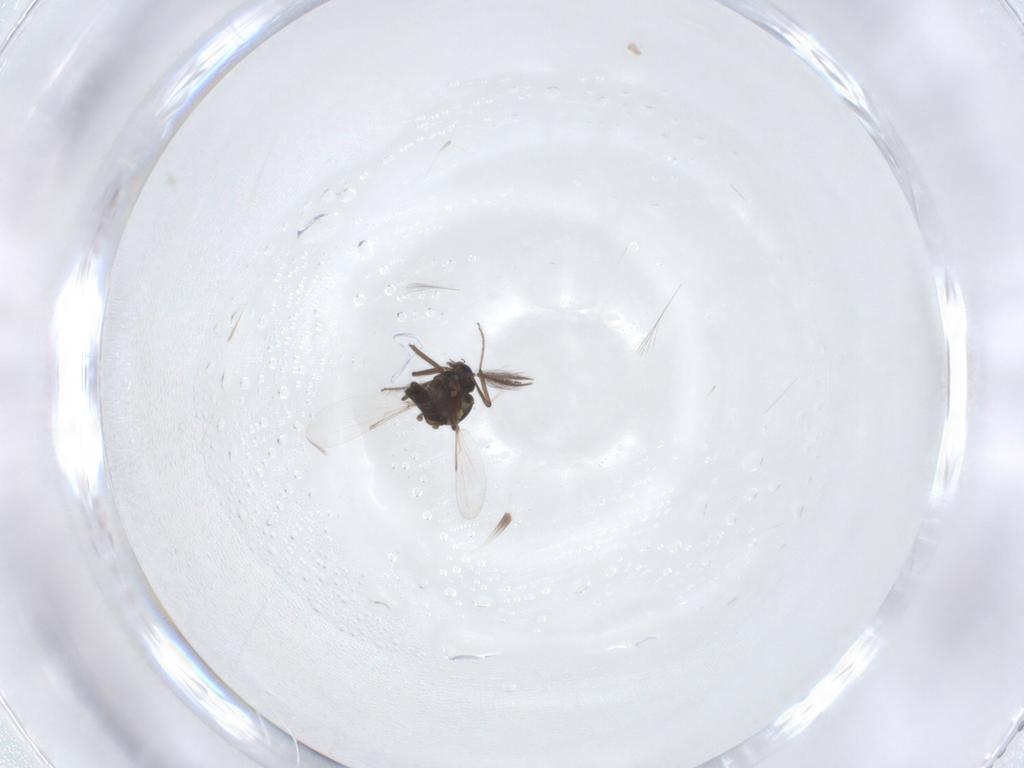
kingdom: Animalia
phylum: Arthropoda
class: Insecta
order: Diptera
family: Ceratopogonidae
